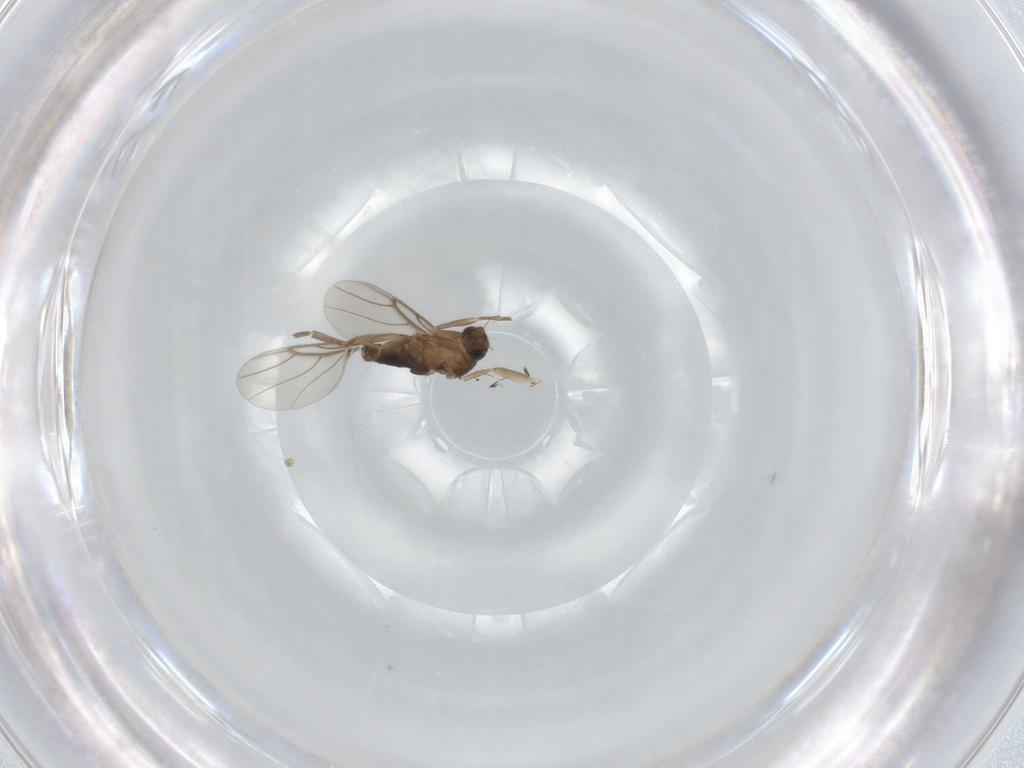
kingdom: Animalia
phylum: Arthropoda
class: Insecta
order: Diptera
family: Phoridae
